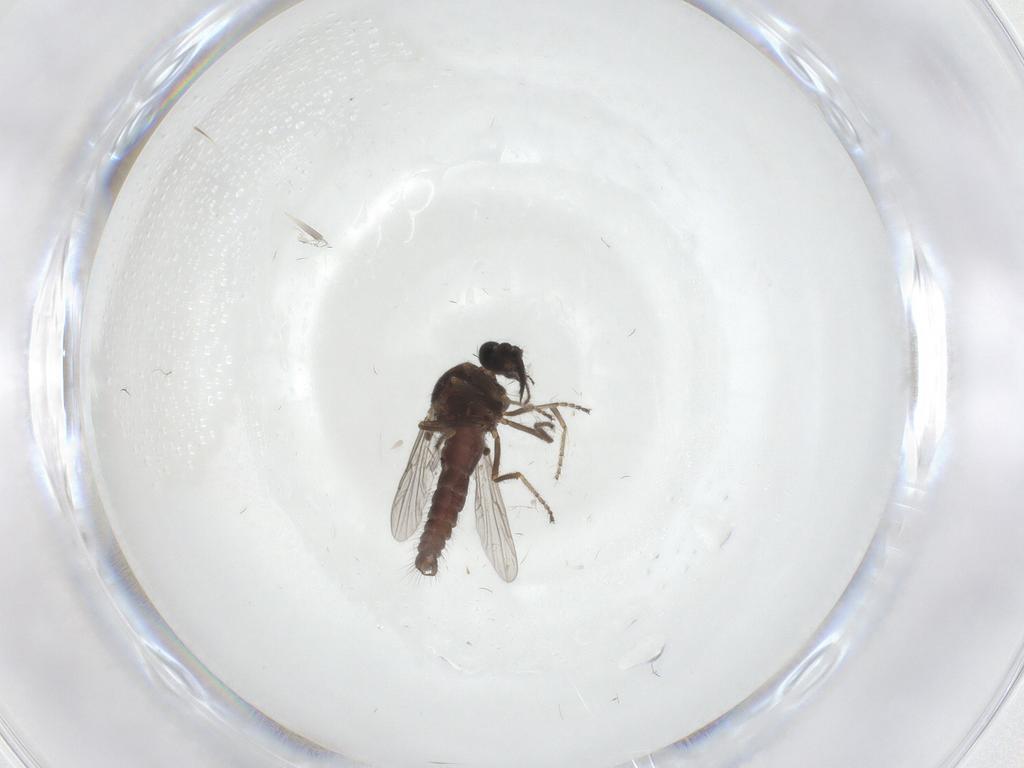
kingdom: Animalia
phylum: Arthropoda
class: Insecta
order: Diptera
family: Ceratopogonidae
